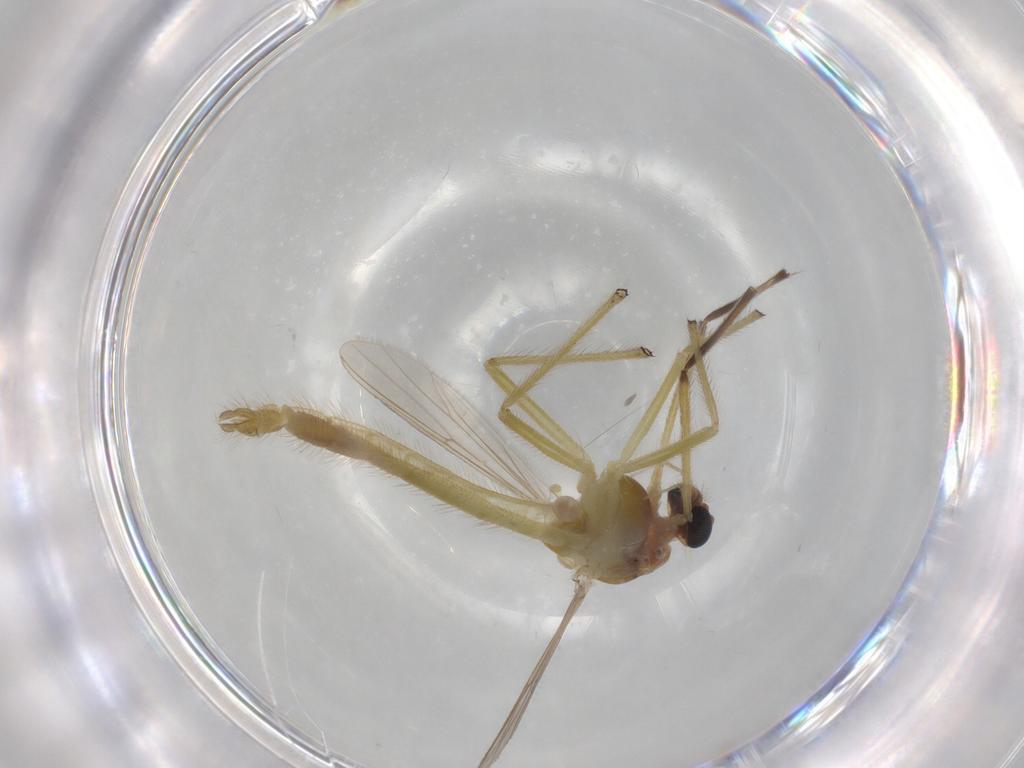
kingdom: Animalia
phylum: Arthropoda
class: Insecta
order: Diptera
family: Chironomidae
